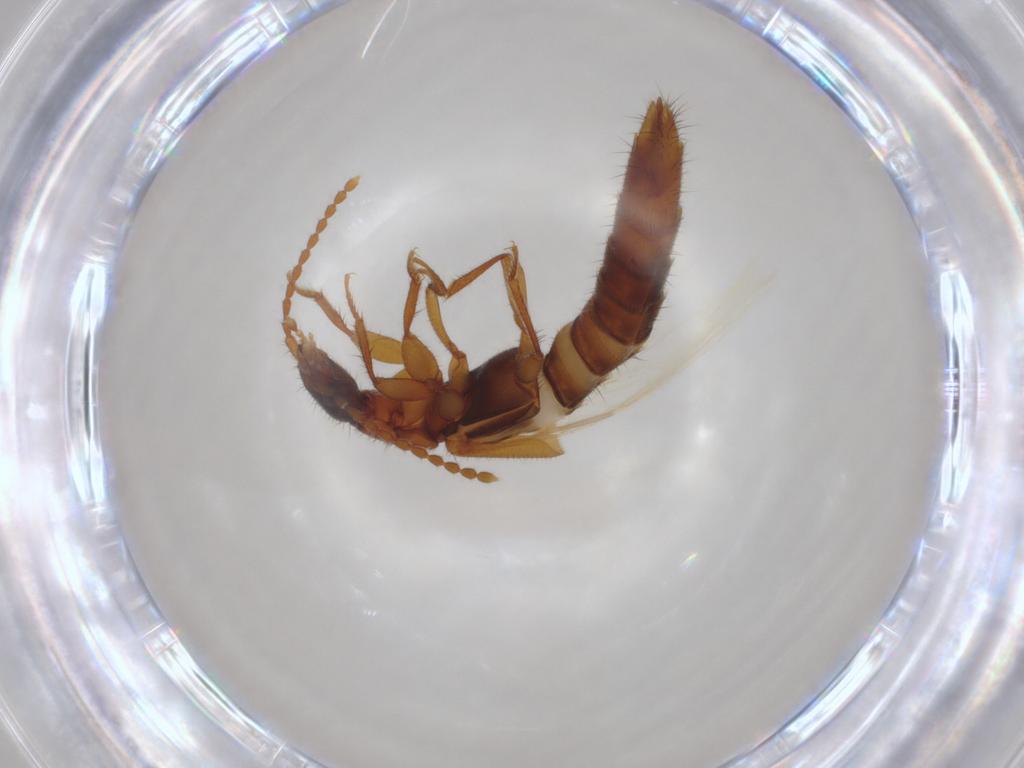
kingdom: Animalia
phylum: Arthropoda
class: Insecta
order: Coleoptera
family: Staphylinidae
